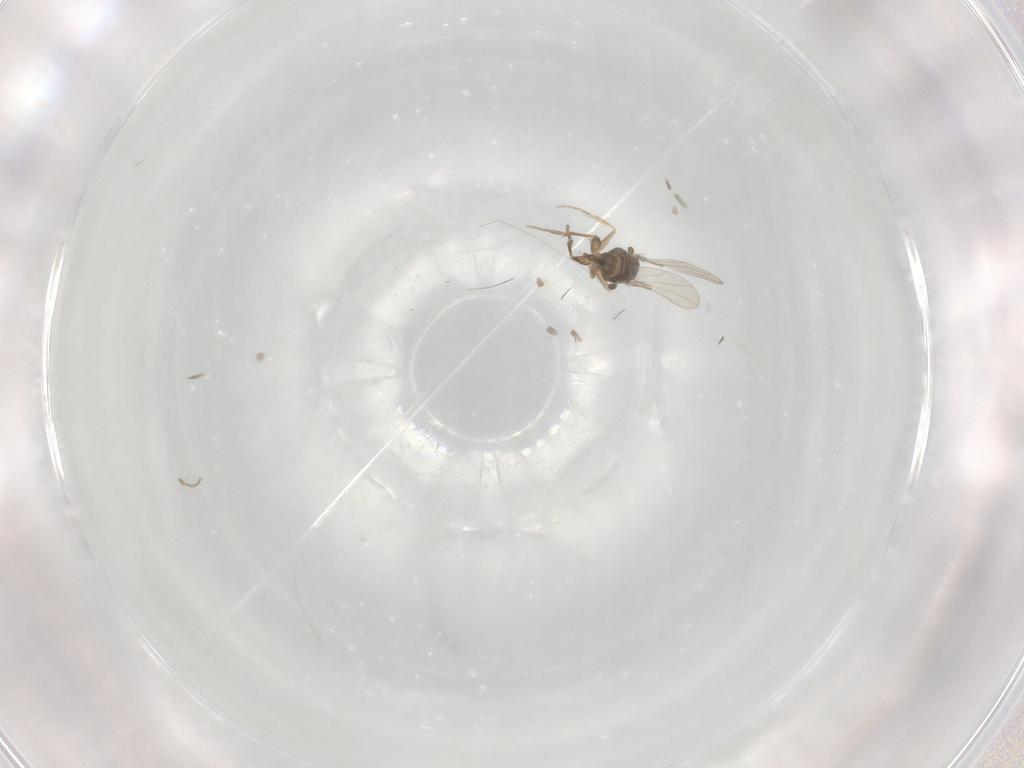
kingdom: Animalia
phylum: Arthropoda
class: Insecta
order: Diptera
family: Phoridae
